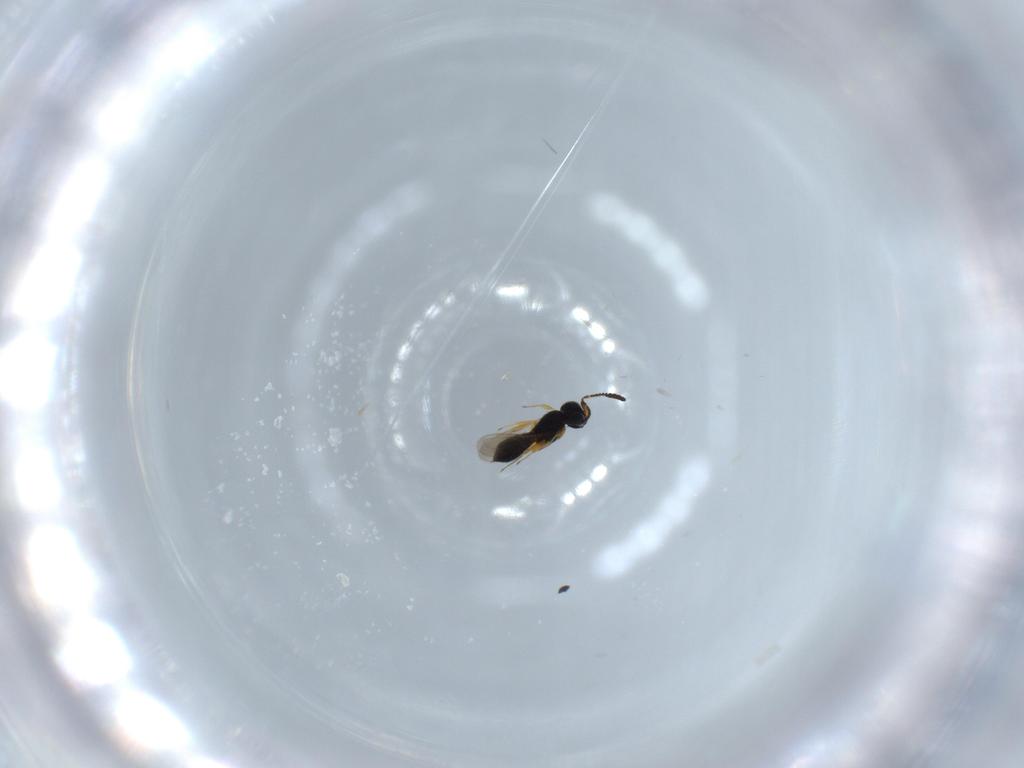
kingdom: Animalia
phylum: Arthropoda
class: Insecta
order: Hymenoptera
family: Scelionidae
